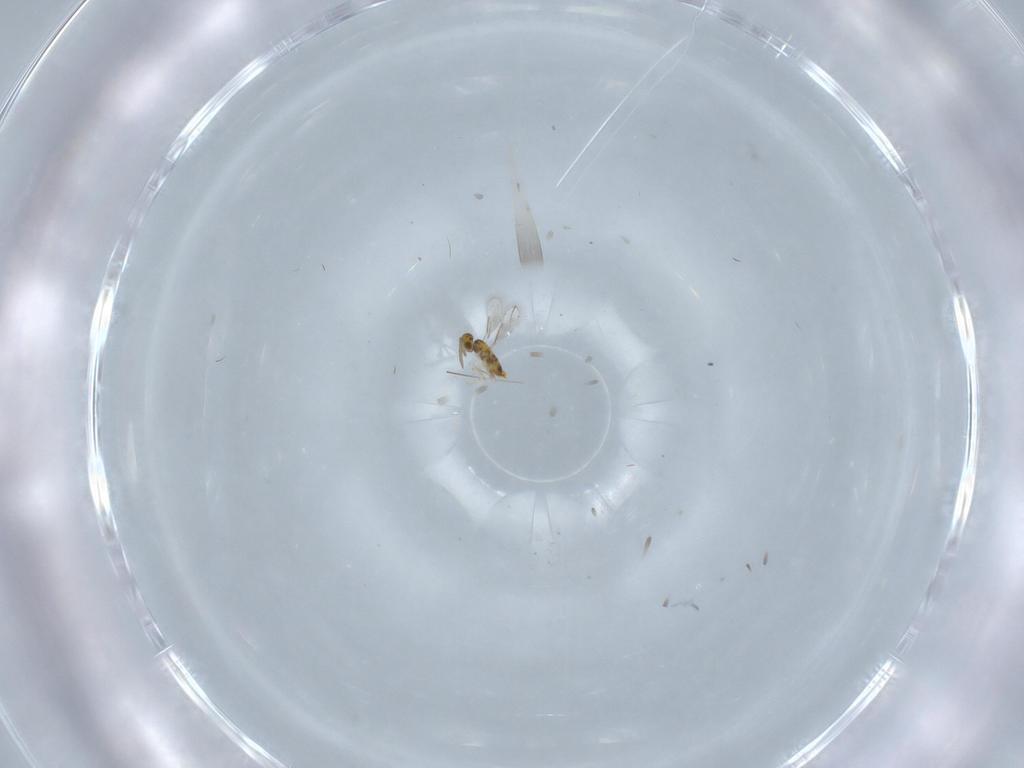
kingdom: Animalia
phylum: Arthropoda
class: Insecta
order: Hymenoptera
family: Aphelinidae
